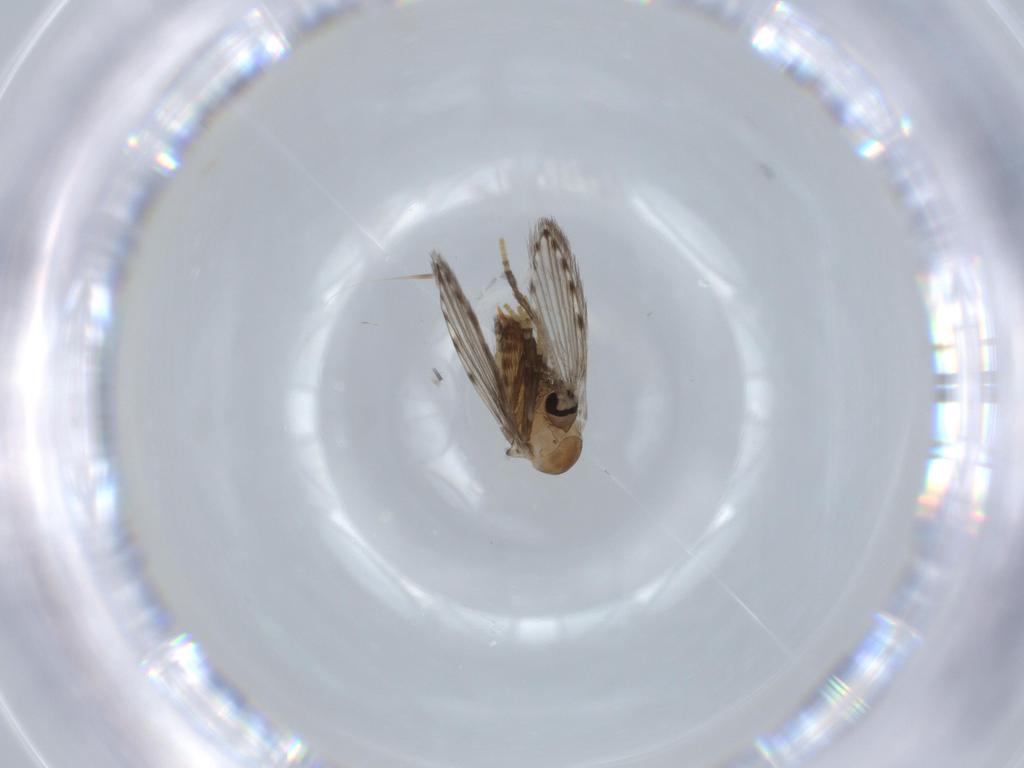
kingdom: Animalia
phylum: Arthropoda
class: Insecta
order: Diptera
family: Psychodidae
